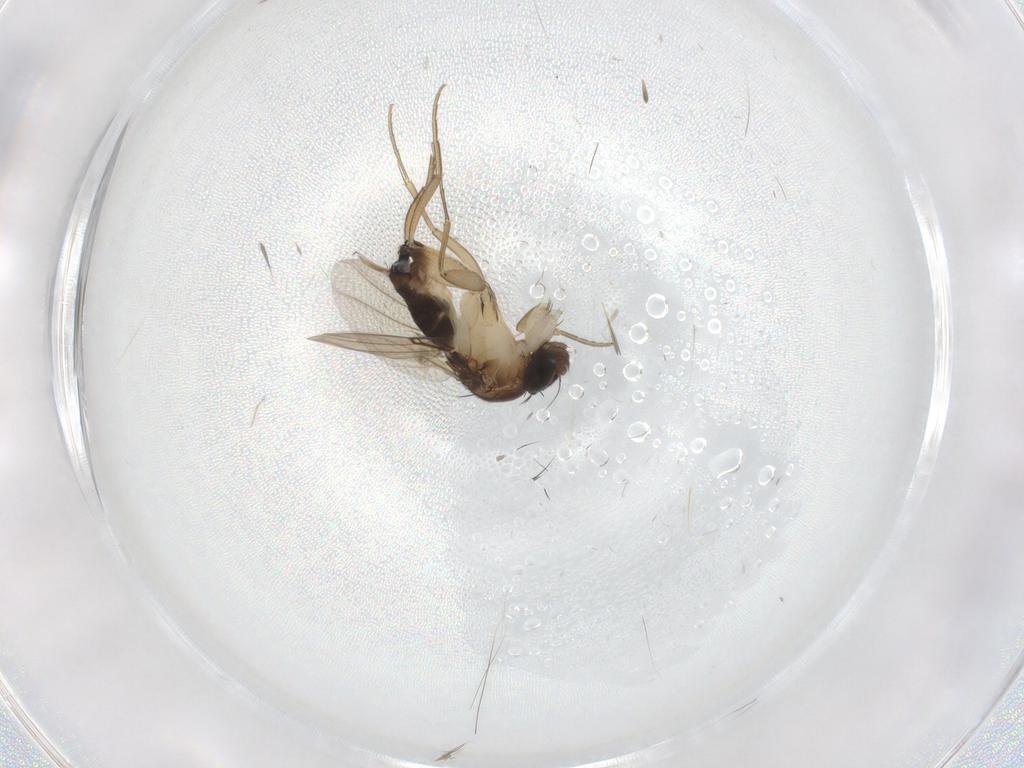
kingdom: Animalia
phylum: Arthropoda
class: Insecta
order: Diptera
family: Phoridae
